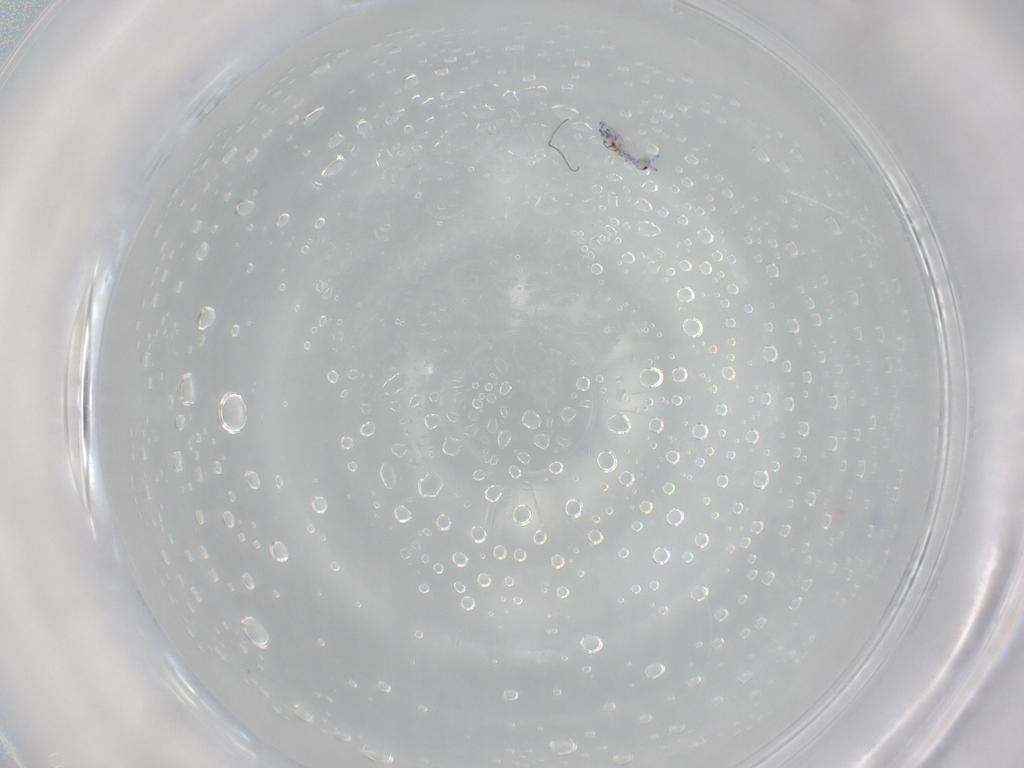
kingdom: Animalia
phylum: Arthropoda
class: Collembola
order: Entomobryomorpha
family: Entomobryidae
